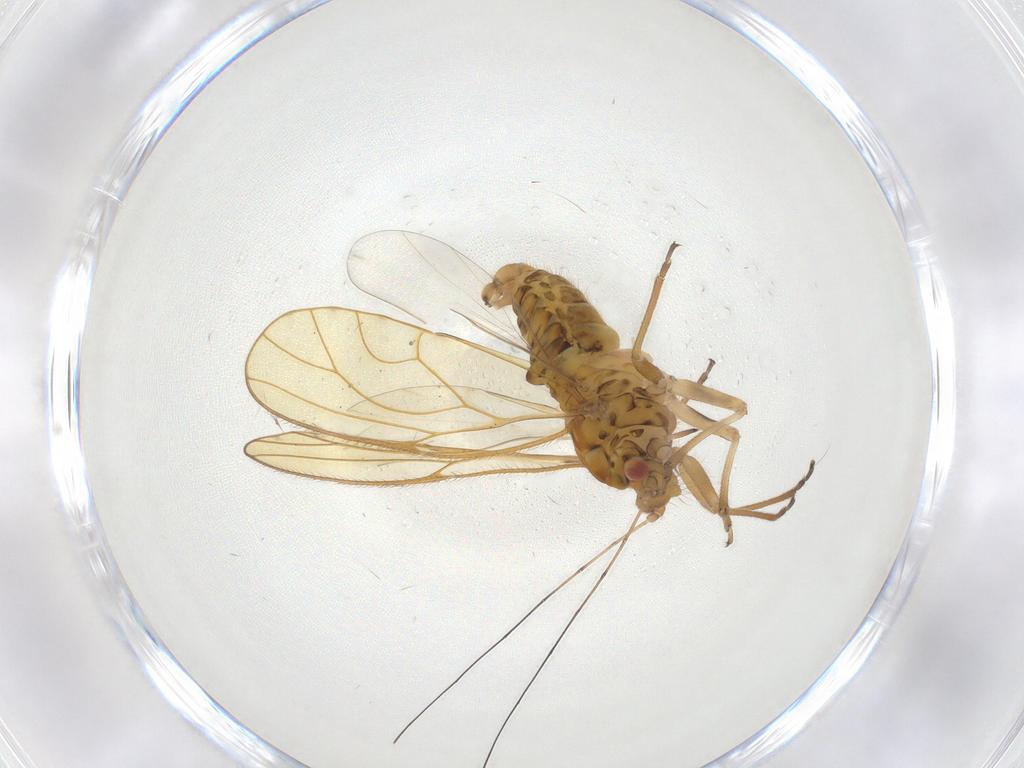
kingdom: Animalia
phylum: Arthropoda
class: Insecta
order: Hemiptera
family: Psyllidae
